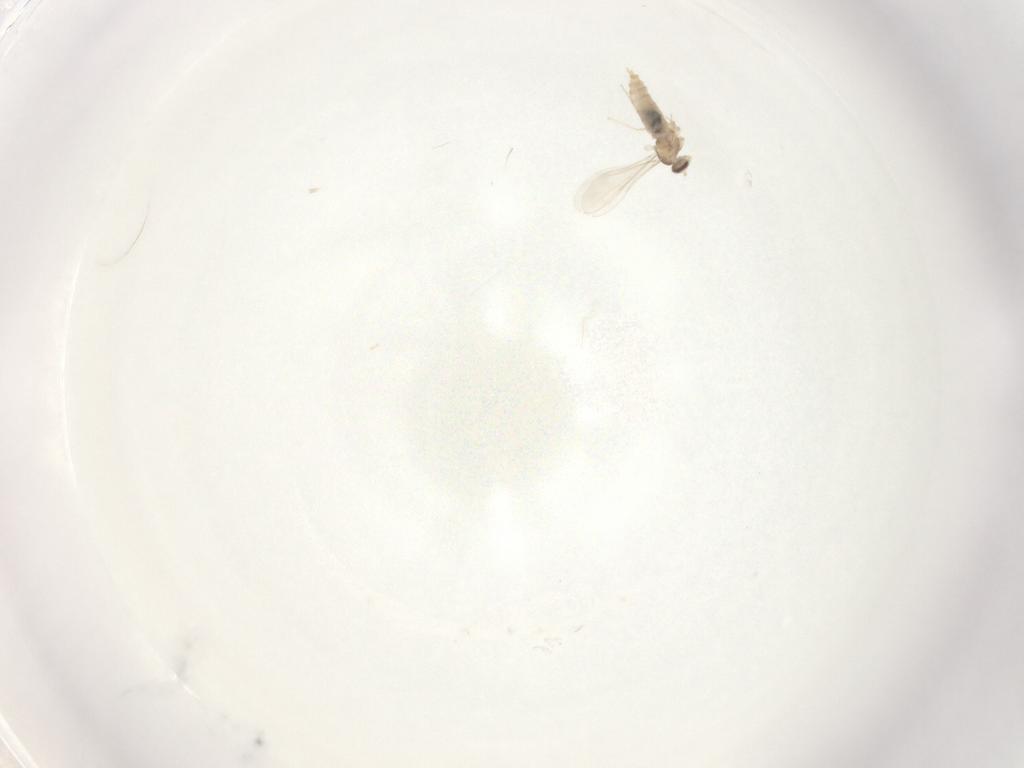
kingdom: Animalia
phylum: Arthropoda
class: Insecta
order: Diptera
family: Cecidomyiidae
